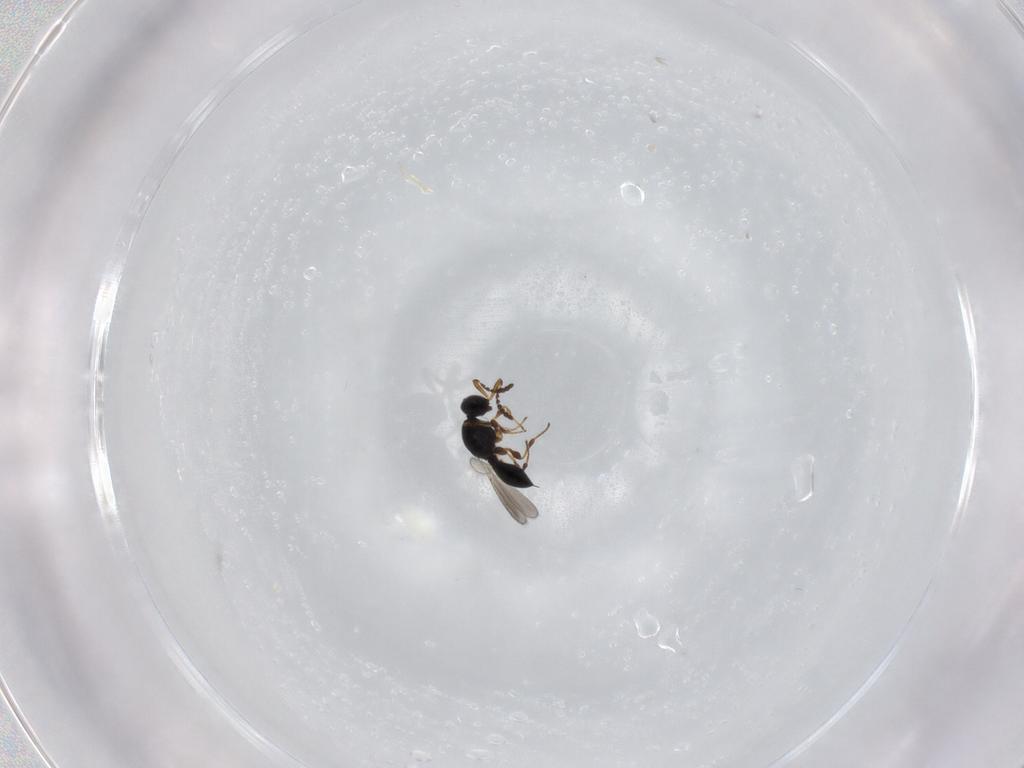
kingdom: Animalia
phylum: Arthropoda
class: Insecta
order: Hymenoptera
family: Platygastridae
